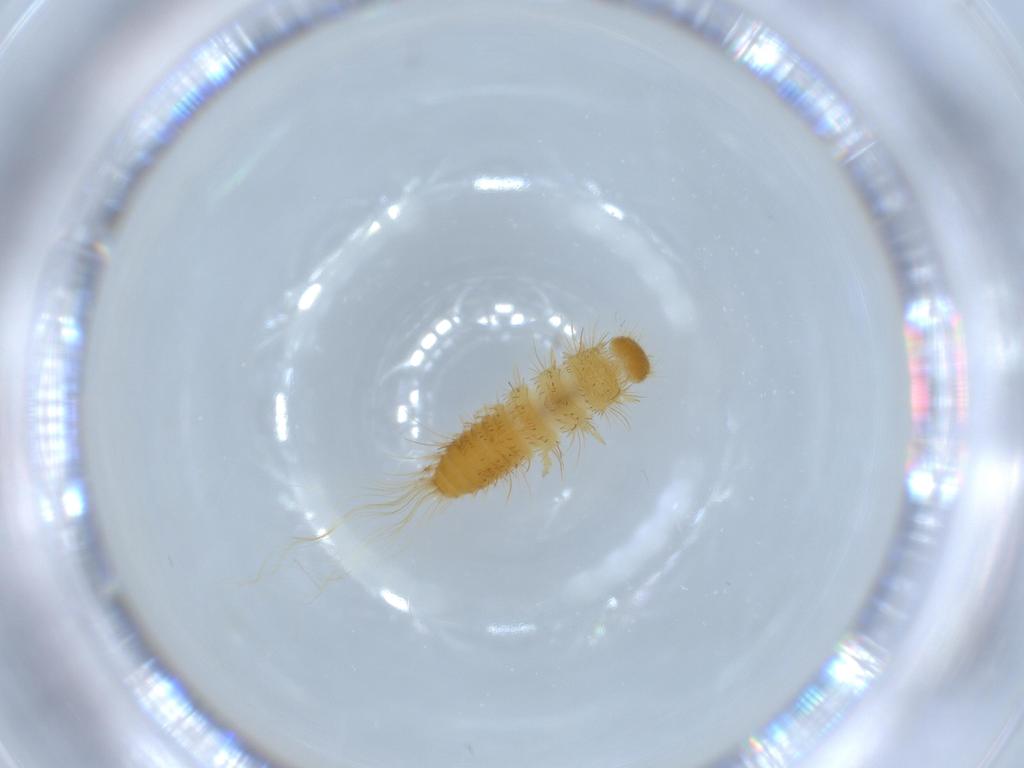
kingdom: Animalia
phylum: Arthropoda
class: Insecta
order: Coleoptera
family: Dermestidae
